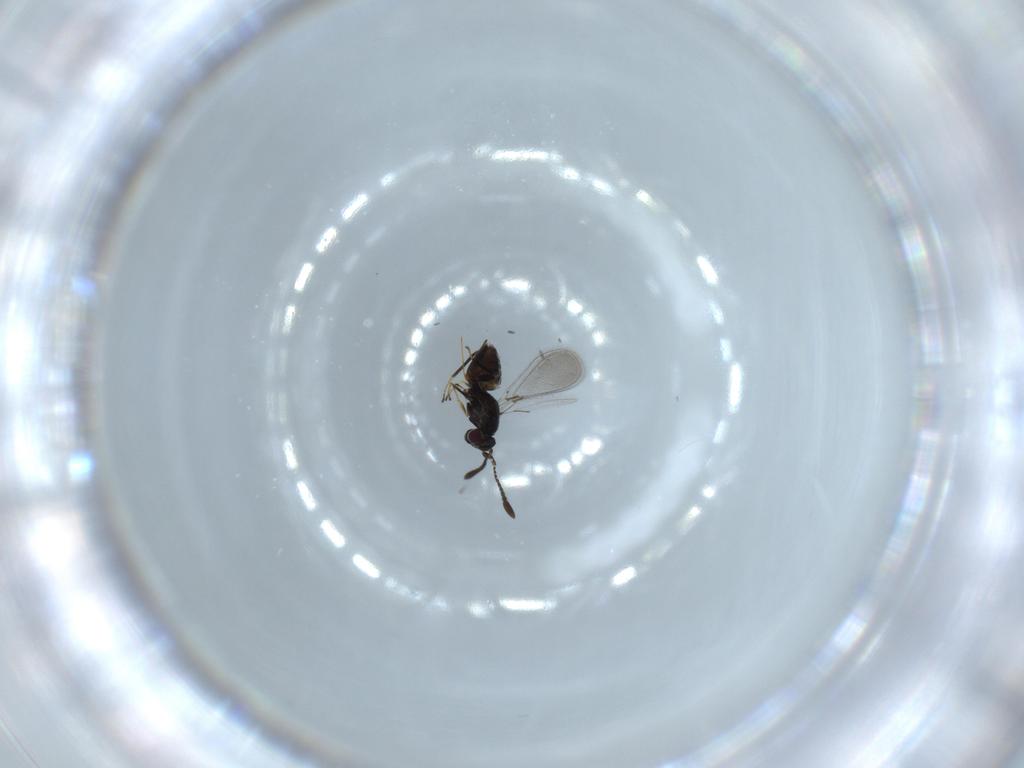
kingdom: Animalia
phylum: Arthropoda
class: Insecta
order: Hymenoptera
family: Mymaridae
